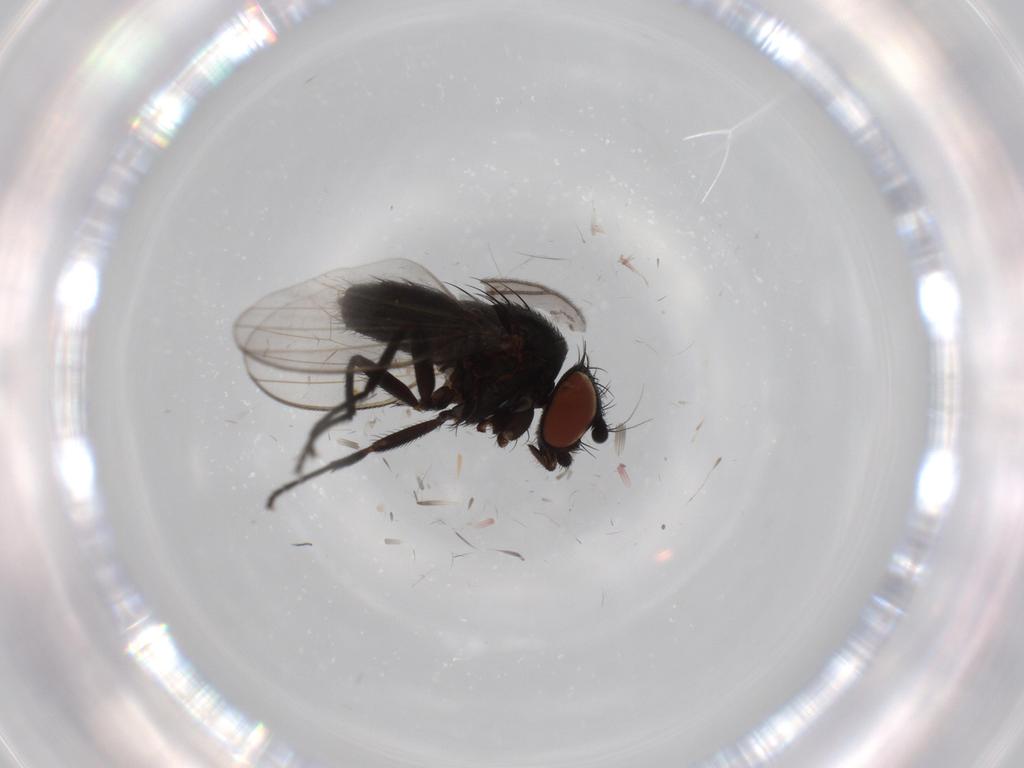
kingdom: Animalia
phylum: Arthropoda
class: Insecta
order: Diptera
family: Milichiidae
